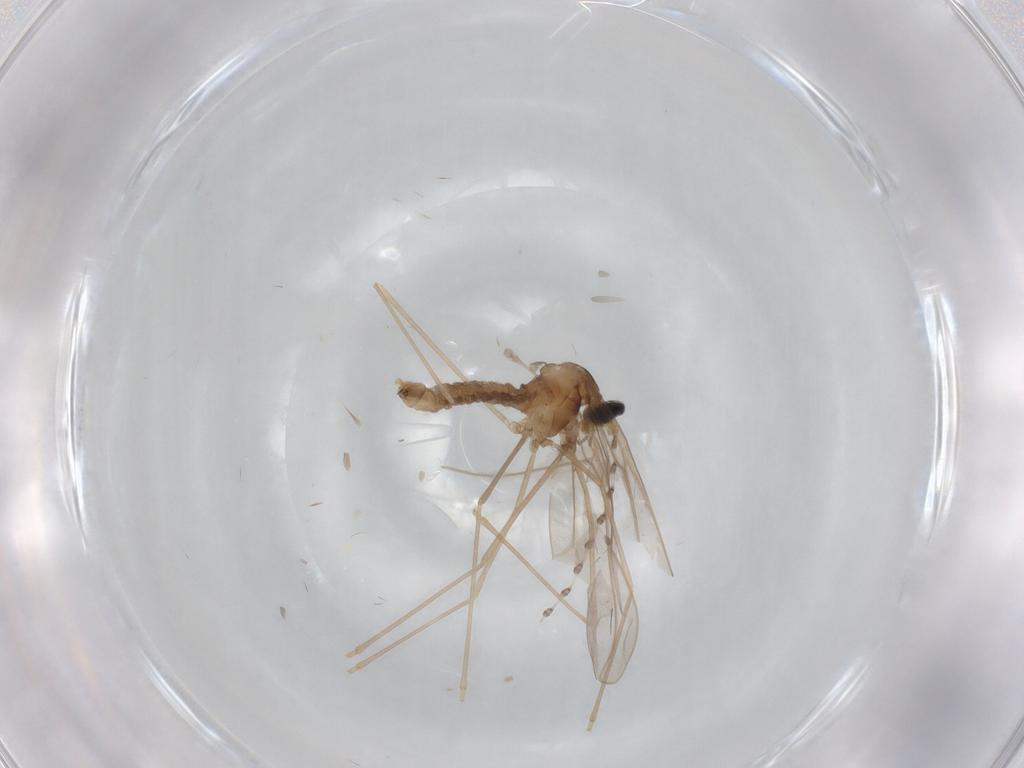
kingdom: Animalia
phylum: Arthropoda
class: Insecta
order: Diptera
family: Cecidomyiidae
